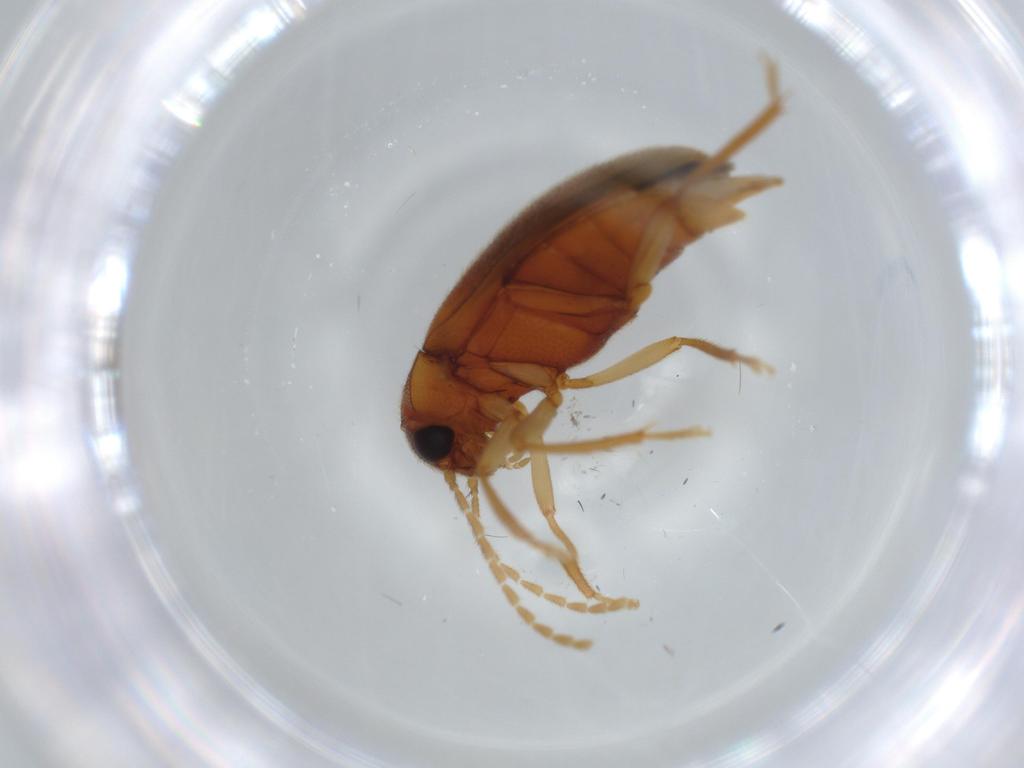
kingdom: Animalia
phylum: Arthropoda
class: Insecta
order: Coleoptera
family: Ptilodactylidae
